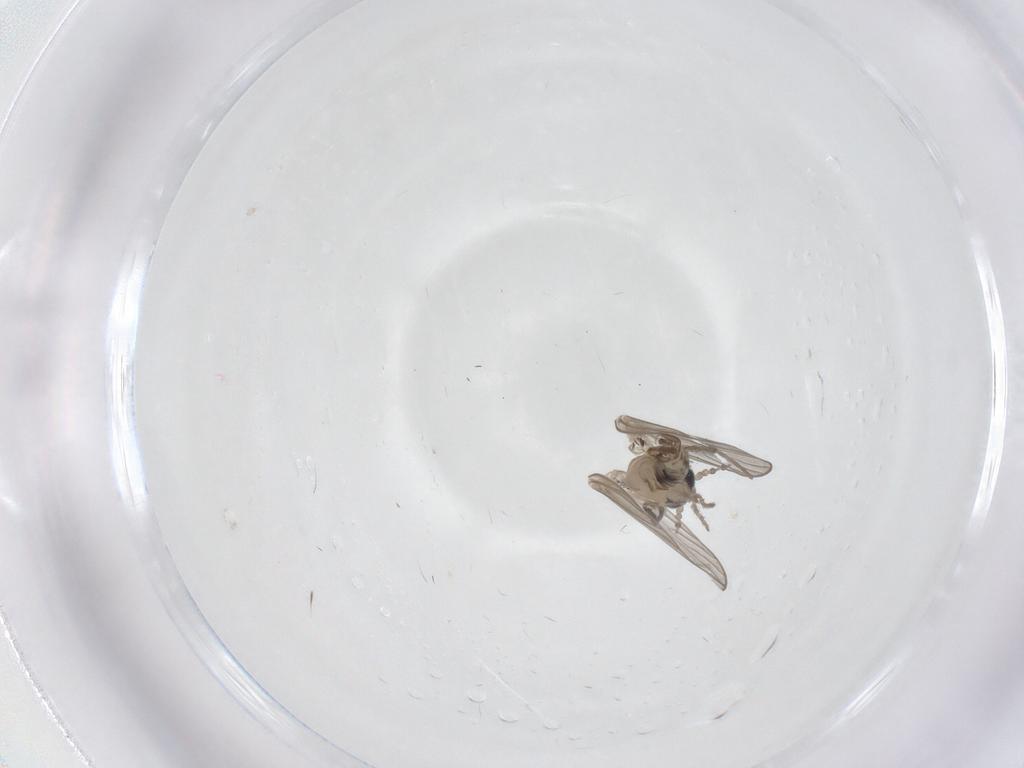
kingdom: Animalia
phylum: Arthropoda
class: Insecta
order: Diptera
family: Psychodidae
